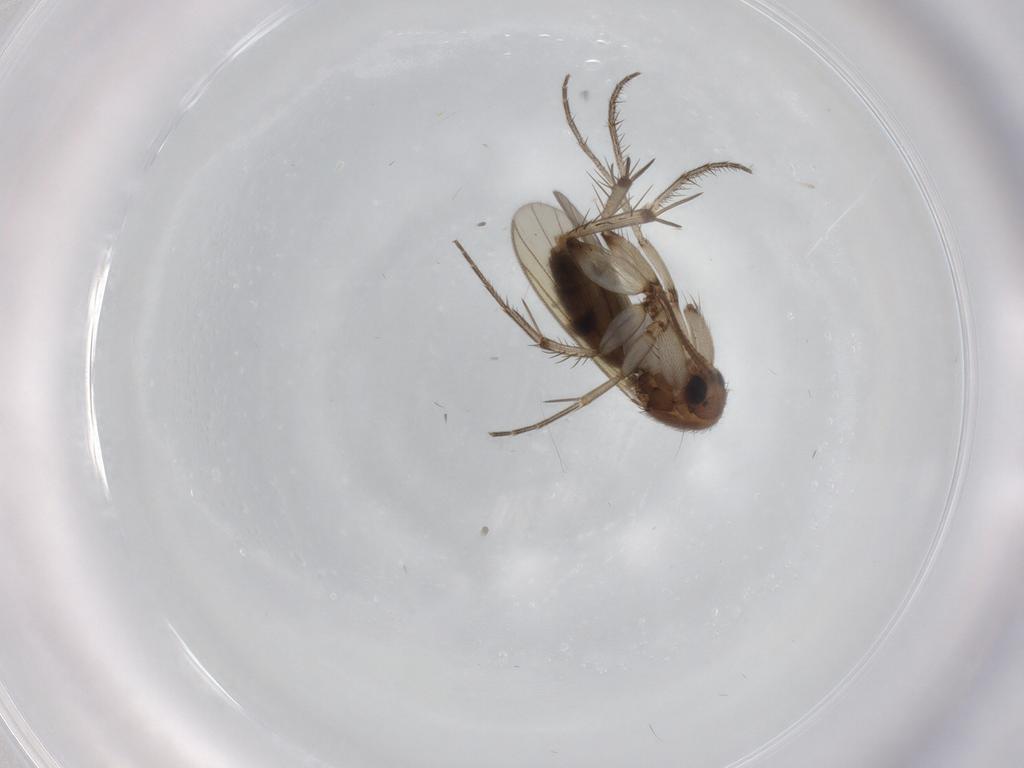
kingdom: Animalia
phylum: Arthropoda
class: Insecta
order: Diptera
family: Mycetophilidae
